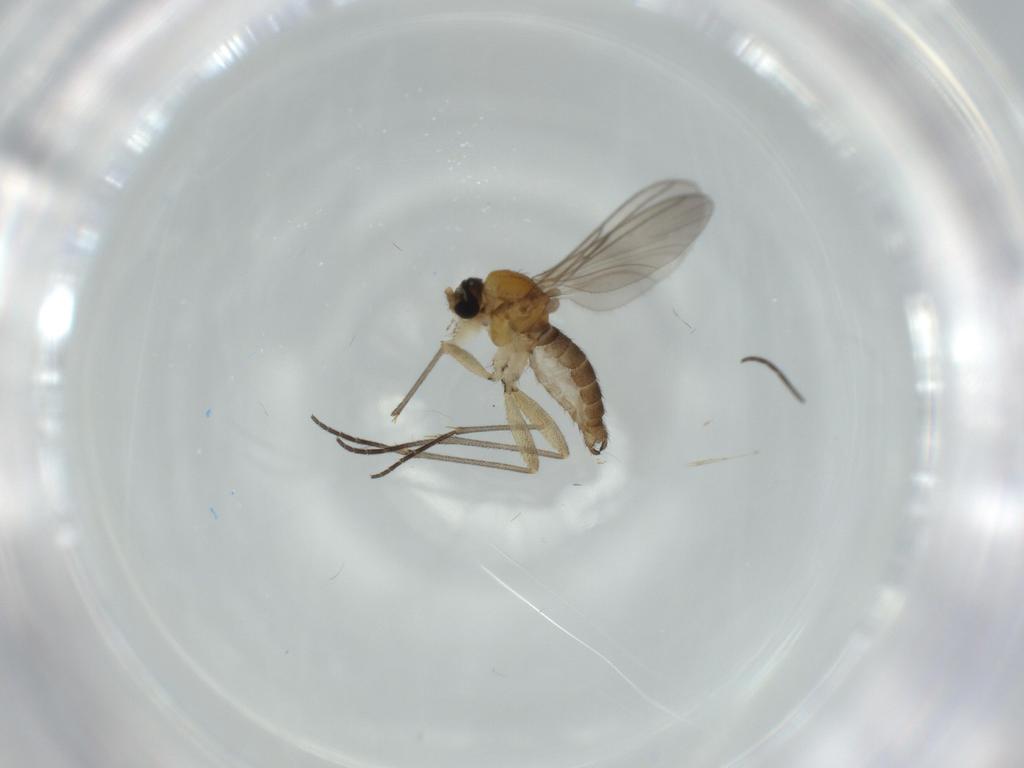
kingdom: Animalia
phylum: Arthropoda
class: Insecta
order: Diptera
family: Sciaridae
